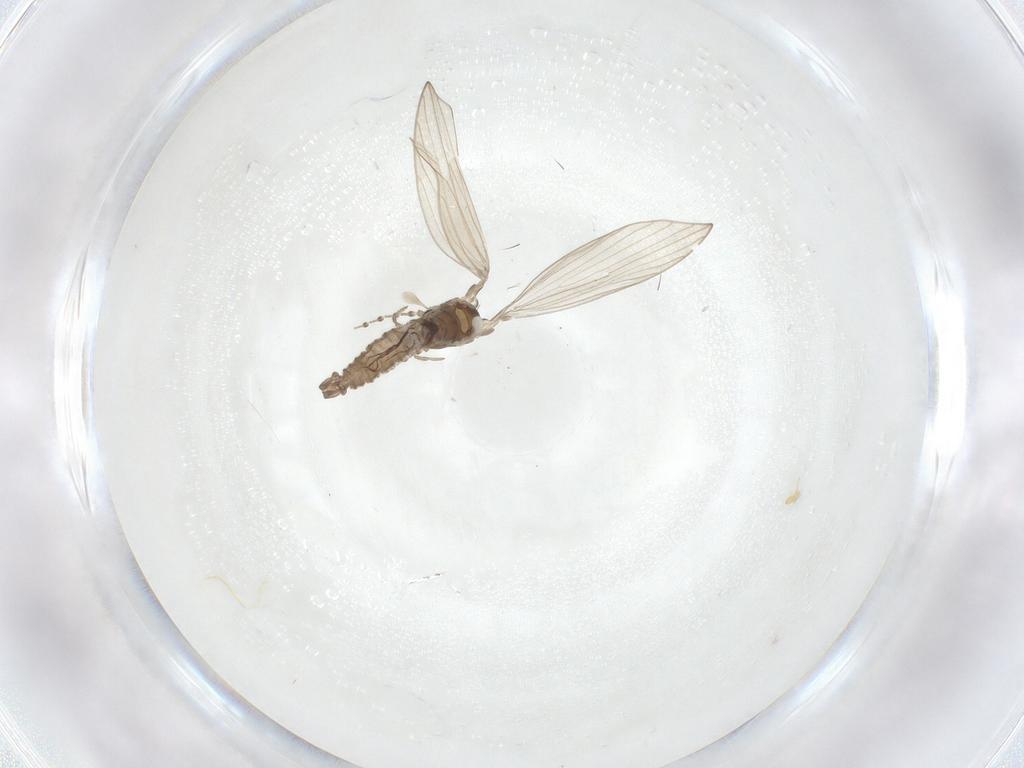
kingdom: Animalia
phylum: Arthropoda
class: Insecta
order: Diptera
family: Psychodidae
